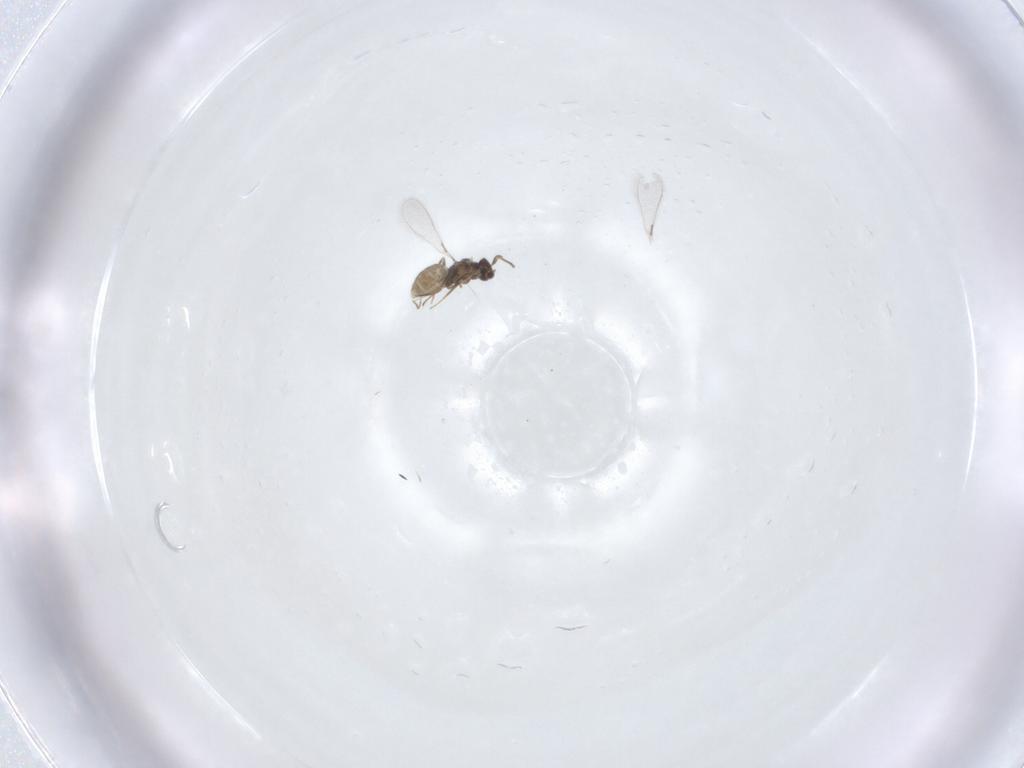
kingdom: Animalia
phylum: Arthropoda
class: Insecta
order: Hymenoptera
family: Mymaridae
